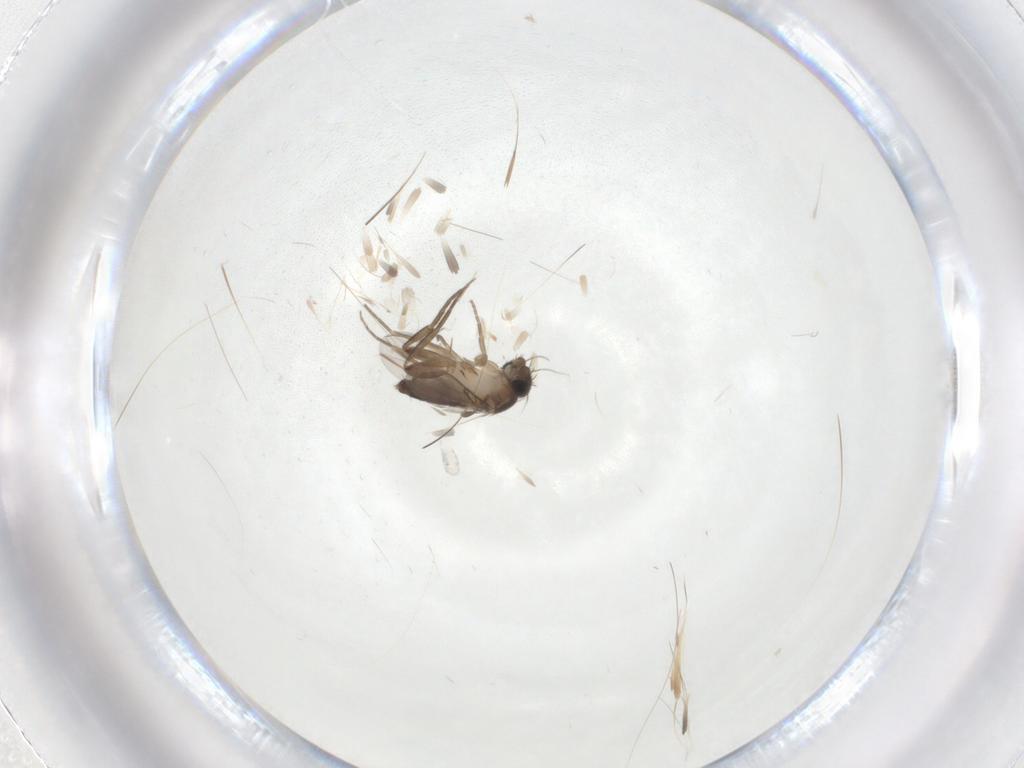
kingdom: Animalia
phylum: Arthropoda
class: Insecta
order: Diptera
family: Phoridae
